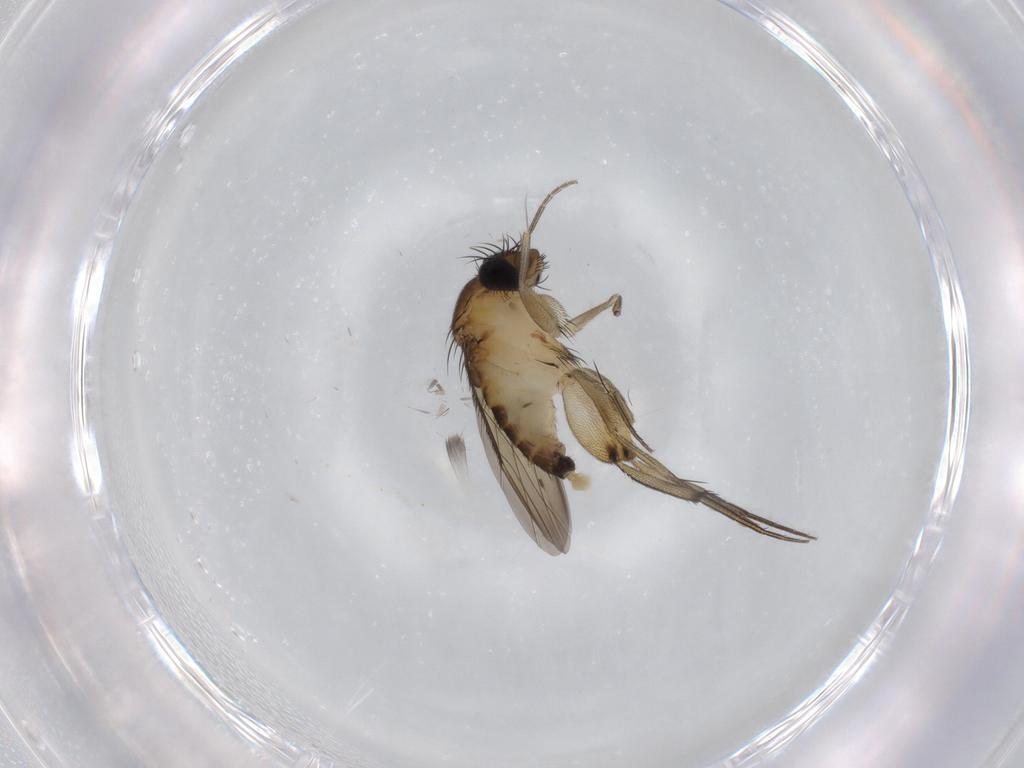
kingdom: Animalia
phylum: Arthropoda
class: Insecta
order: Diptera
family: Phoridae
